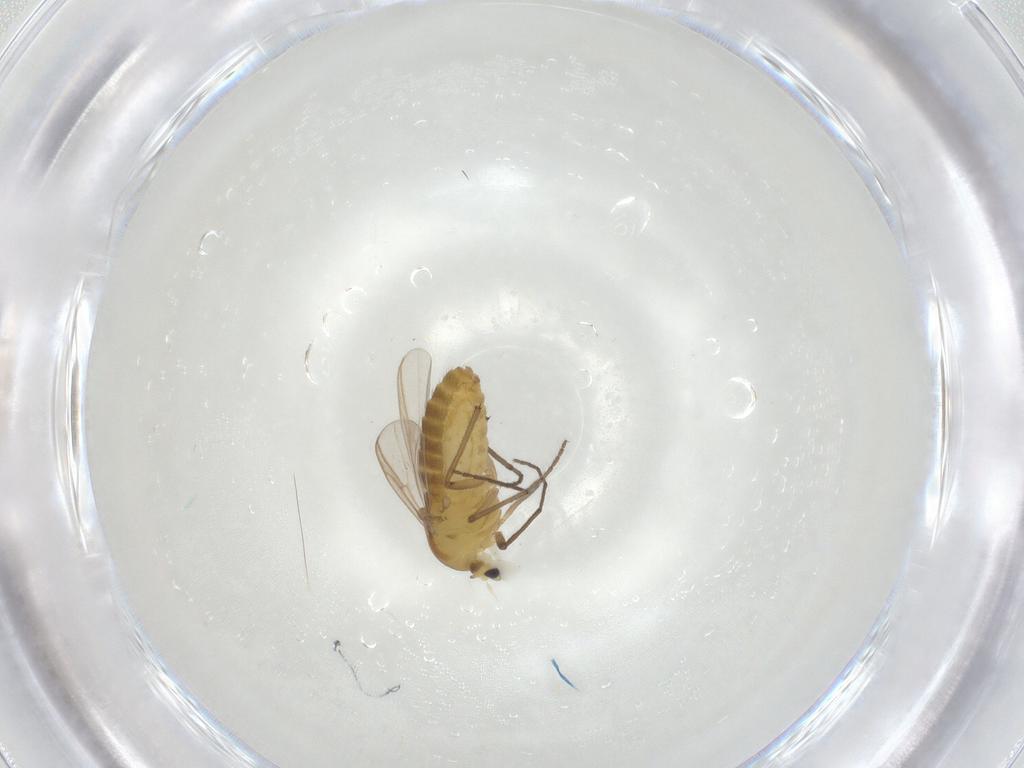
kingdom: Animalia
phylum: Arthropoda
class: Insecta
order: Diptera
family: Chironomidae
